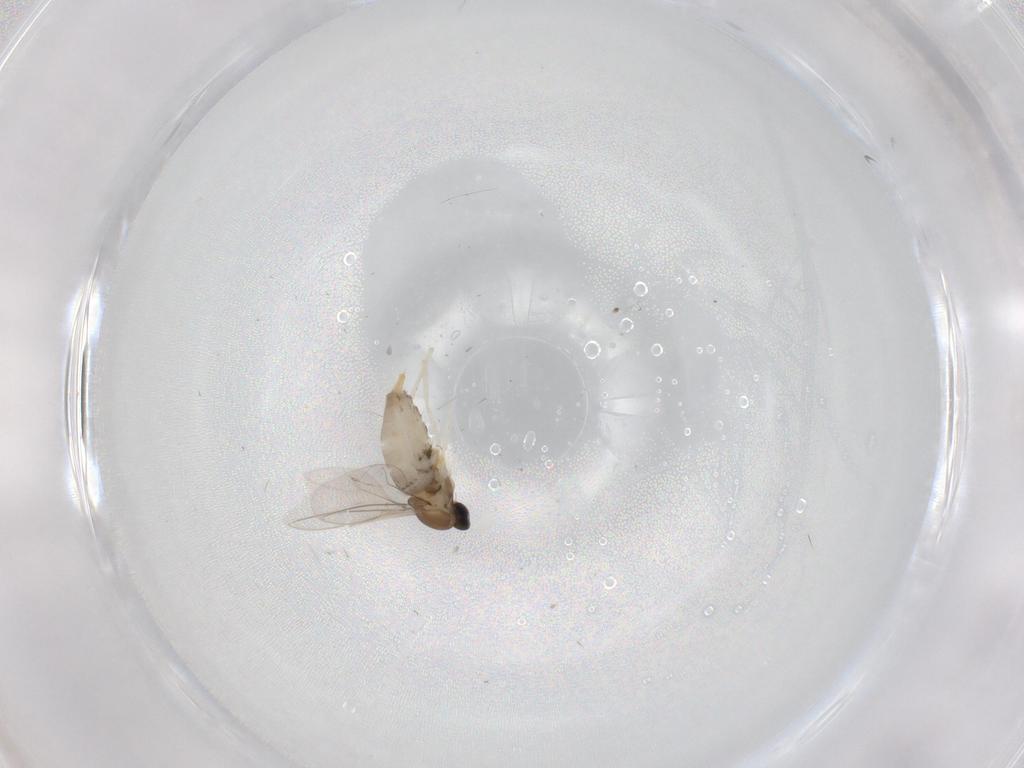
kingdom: Animalia
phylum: Arthropoda
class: Insecta
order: Diptera
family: Cecidomyiidae
